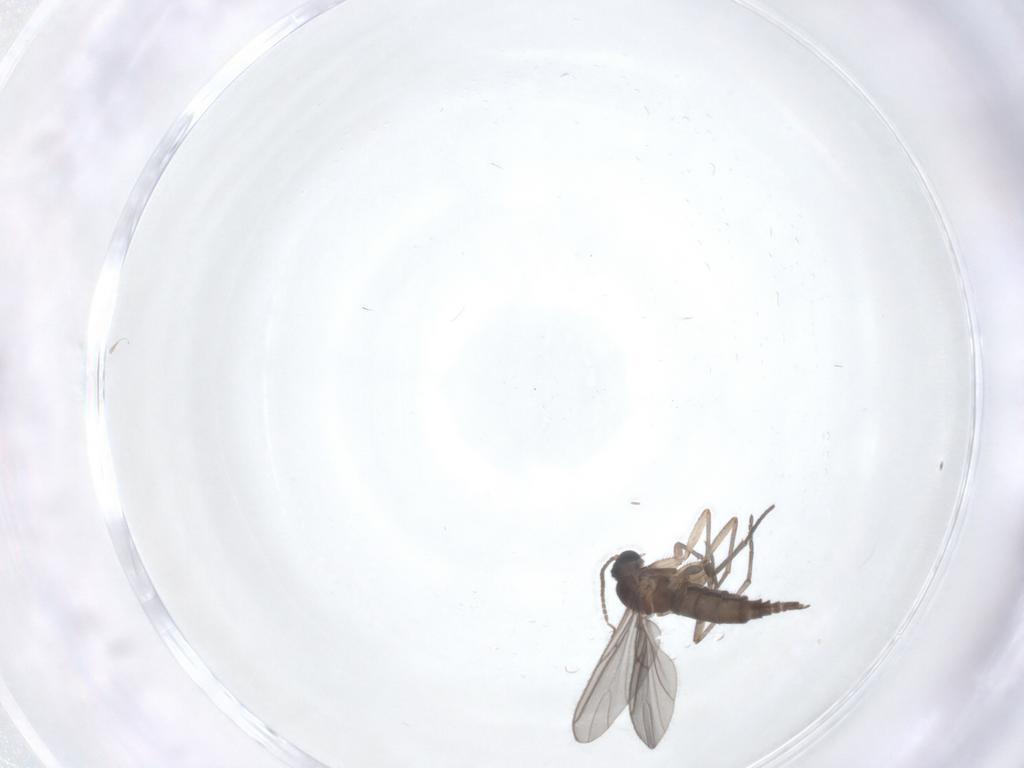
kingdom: Animalia
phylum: Arthropoda
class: Insecta
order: Diptera
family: Sciaridae
